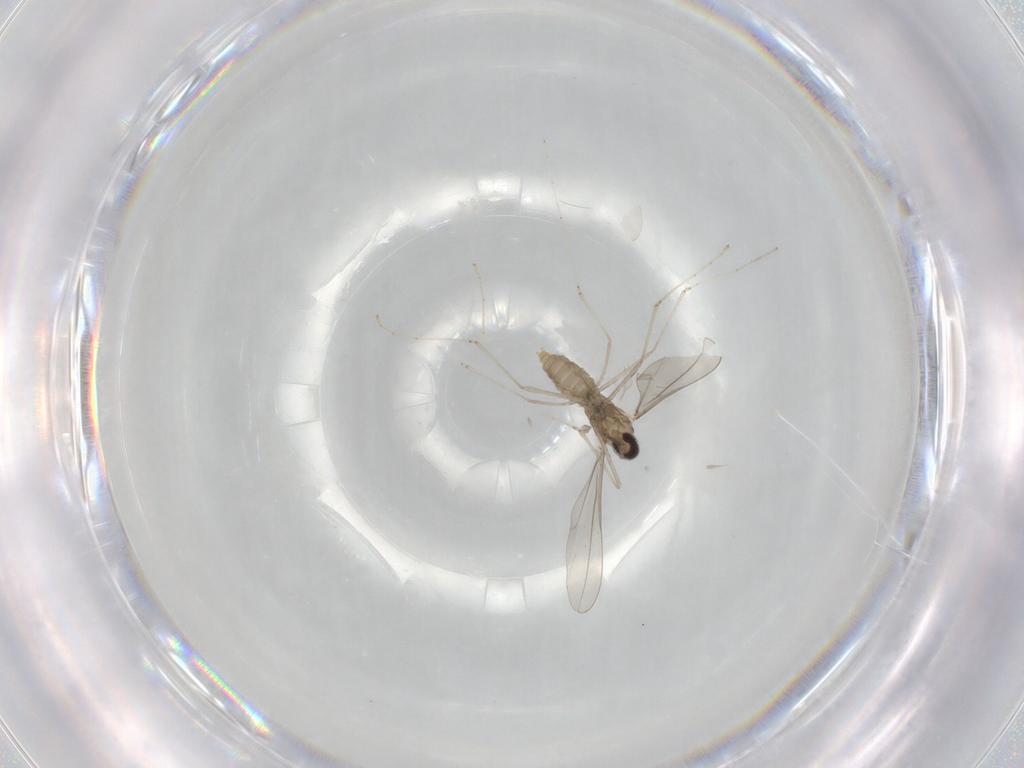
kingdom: Animalia
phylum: Arthropoda
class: Insecta
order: Diptera
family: Cecidomyiidae
